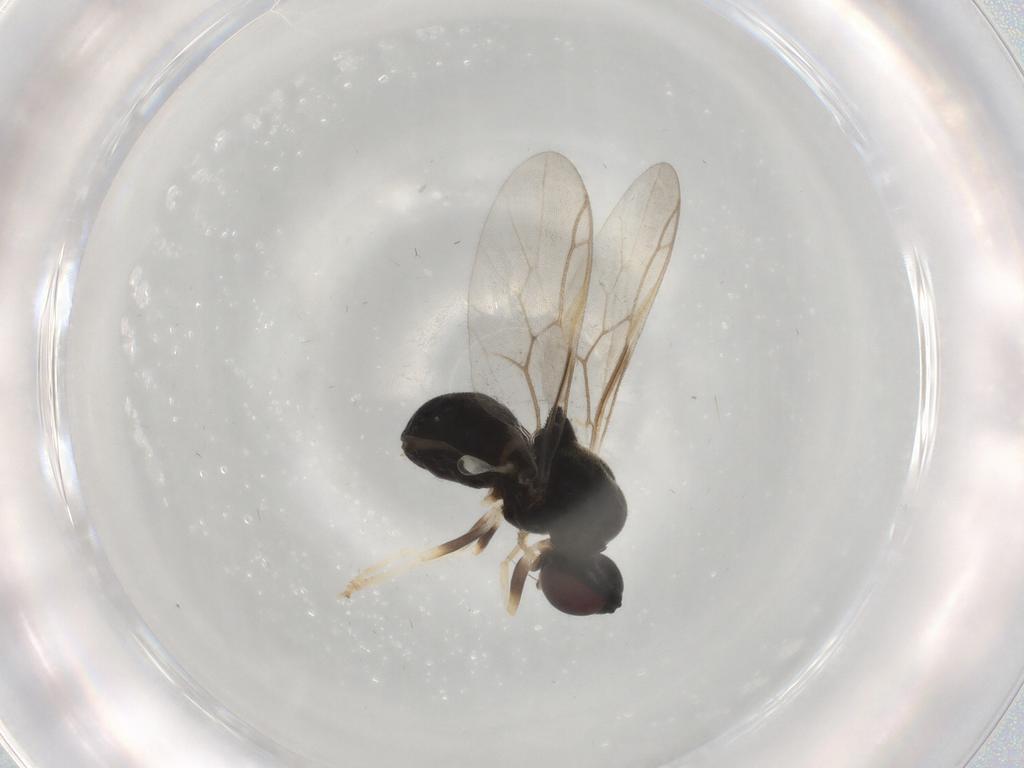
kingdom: Animalia
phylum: Arthropoda
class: Insecta
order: Diptera
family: Stratiomyidae
